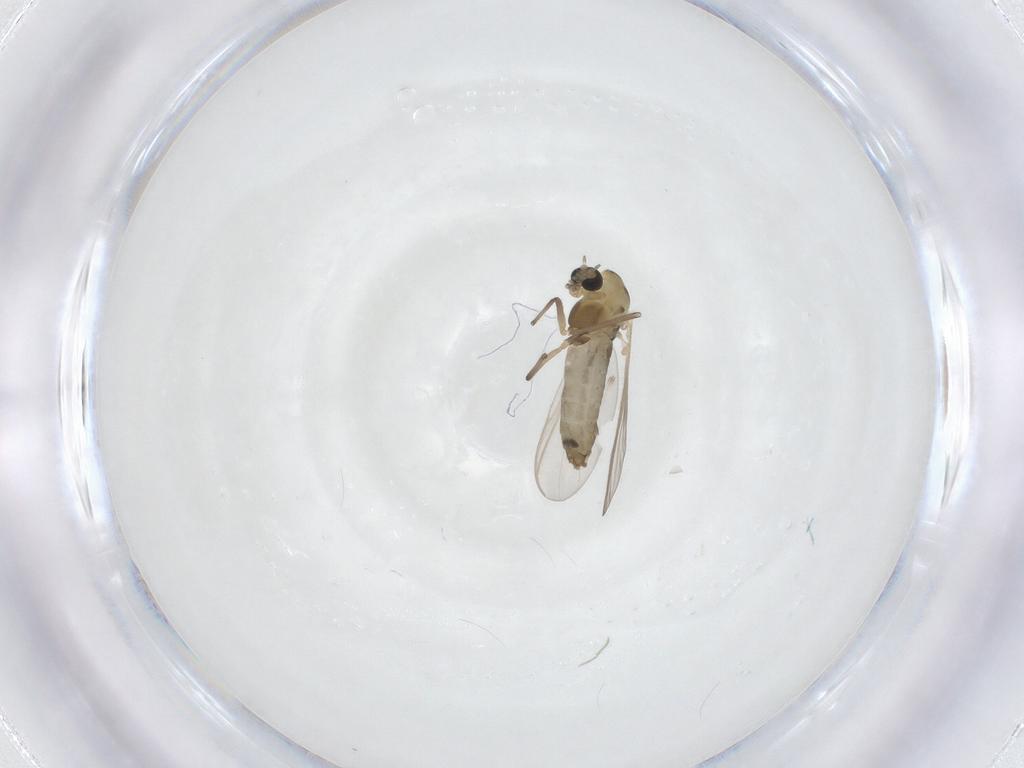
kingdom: Animalia
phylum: Arthropoda
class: Insecta
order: Diptera
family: Chironomidae
